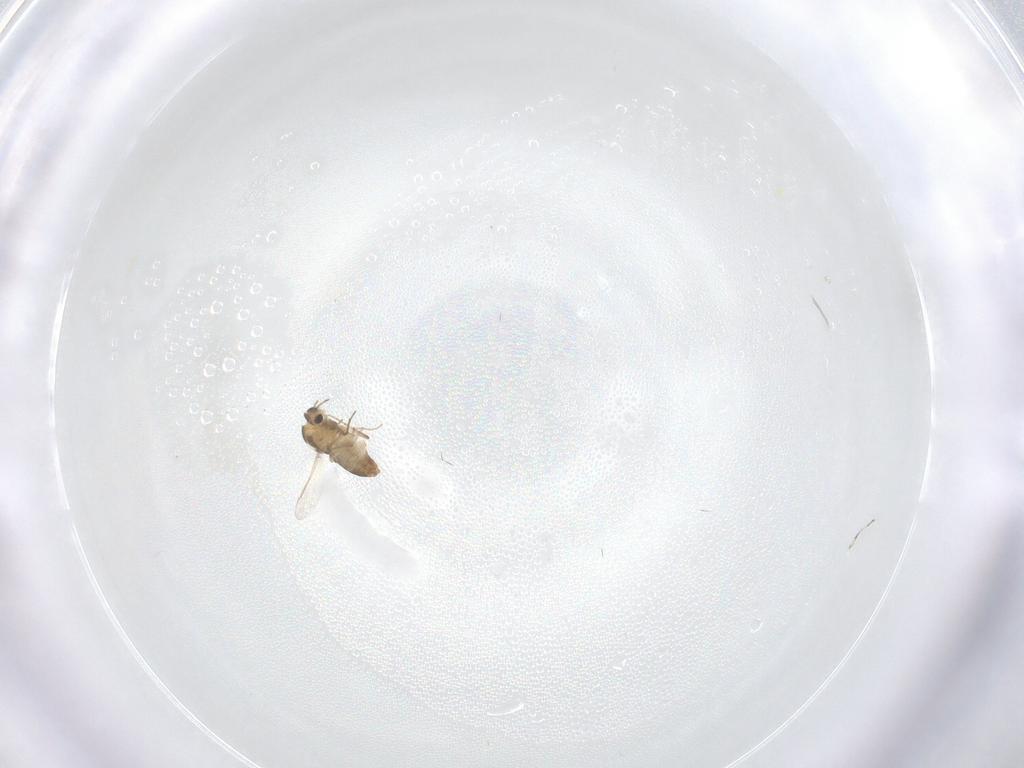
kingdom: Animalia
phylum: Arthropoda
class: Insecta
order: Diptera
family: Chironomidae
